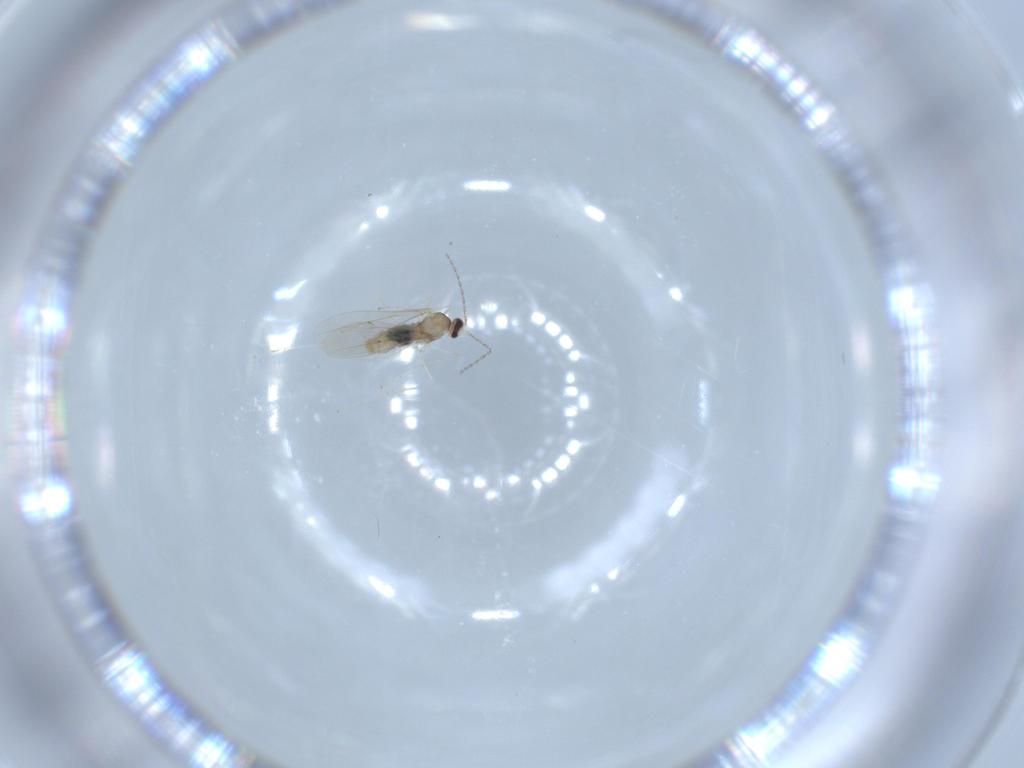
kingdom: Animalia
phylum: Arthropoda
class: Insecta
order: Diptera
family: Cecidomyiidae
